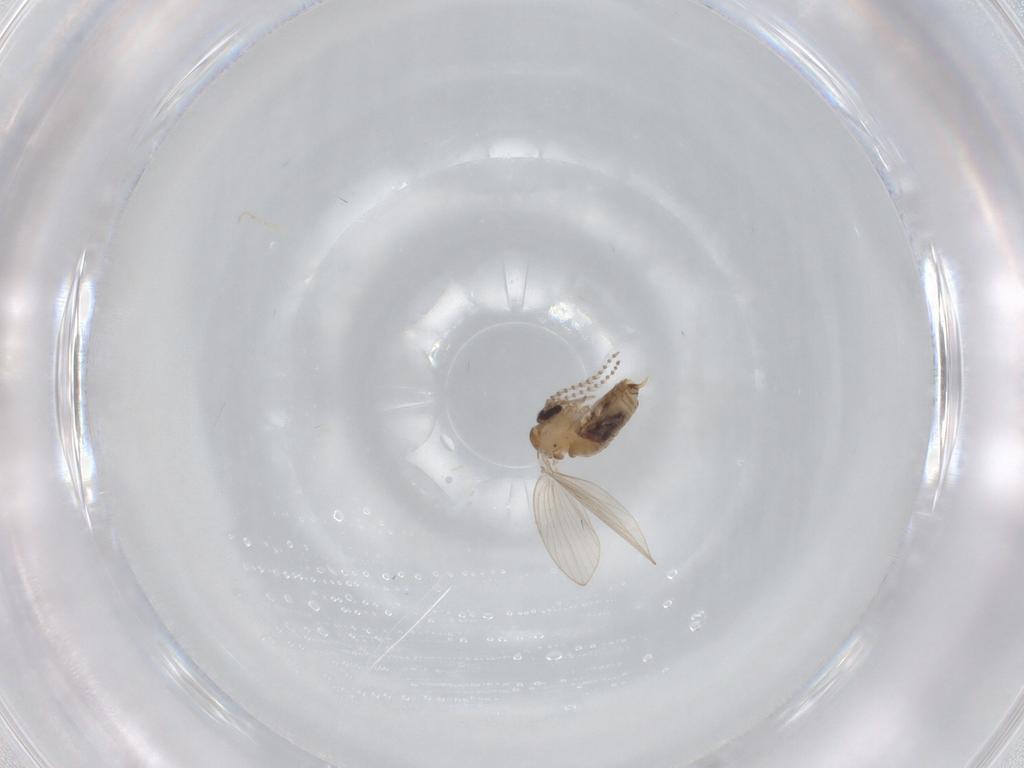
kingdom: Animalia
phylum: Arthropoda
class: Insecta
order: Diptera
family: Psychodidae
